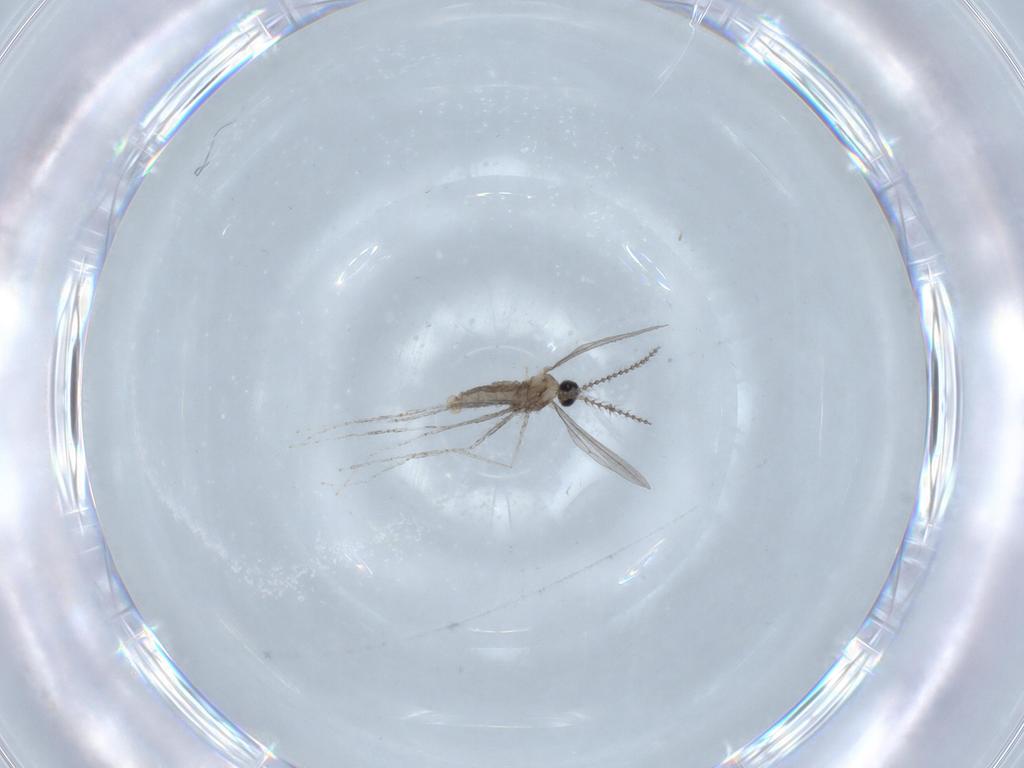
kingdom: Animalia
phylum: Arthropoda
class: Insecta
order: Diptera
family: Cecidomyiidae
